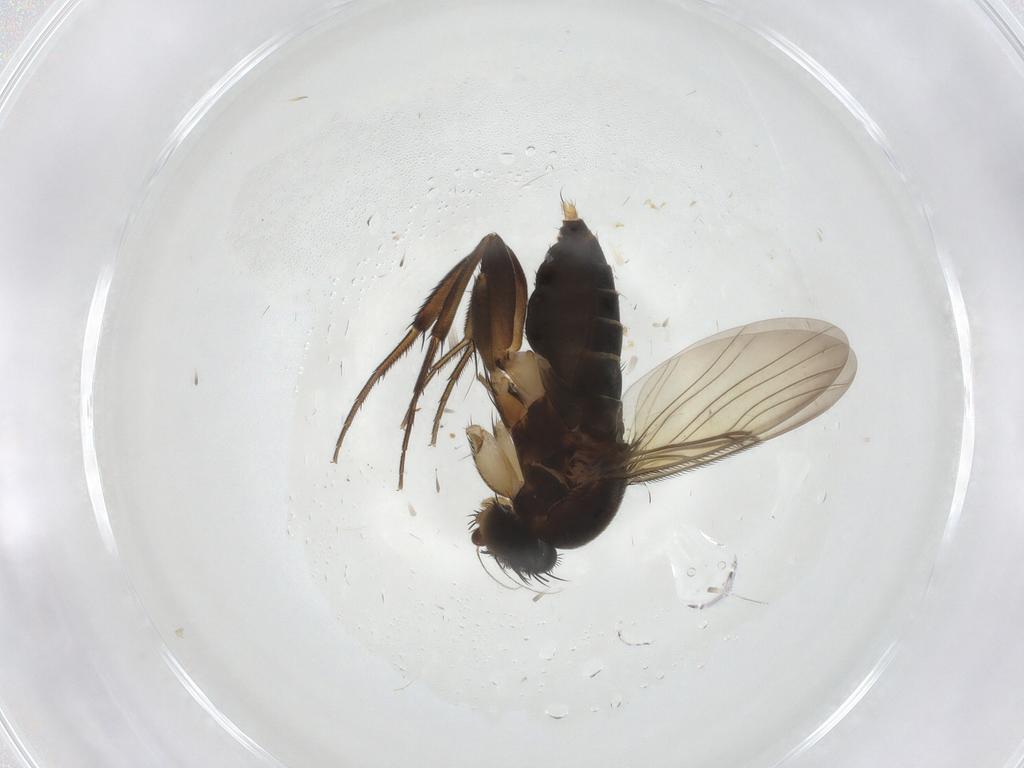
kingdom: Animalia
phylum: Arthropoda
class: Insecta
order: Diptera
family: Phoridae
